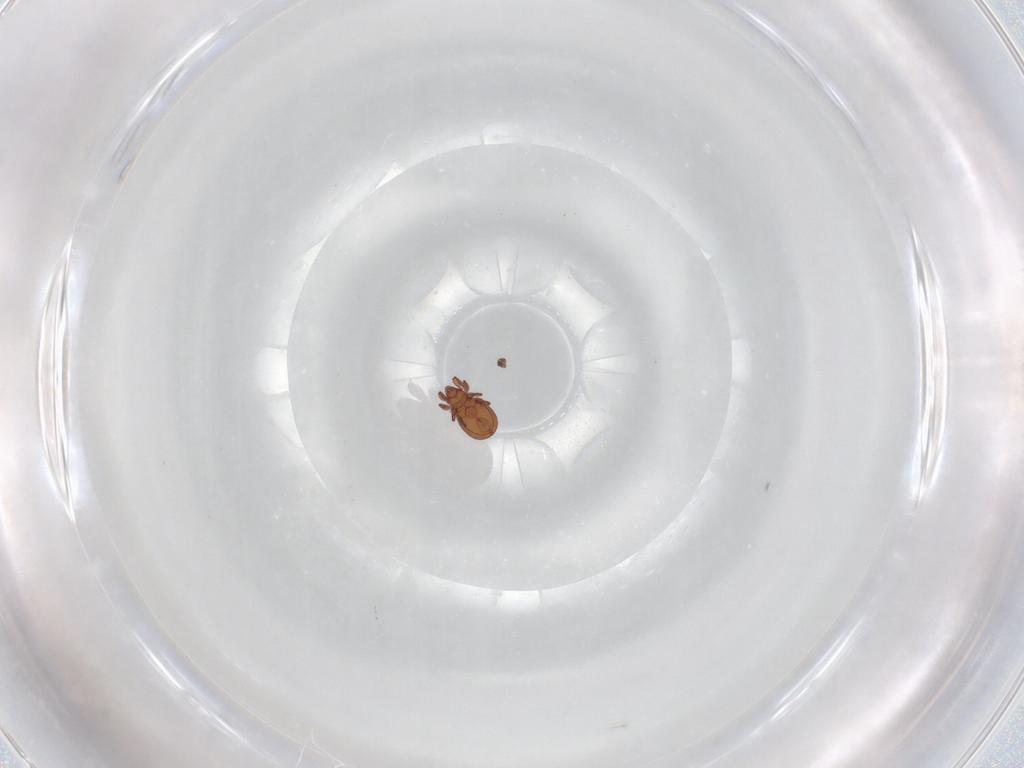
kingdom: Animalia
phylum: Arthropoda
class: Arachnida
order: Sarcoptiformes
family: Eremaeidae
